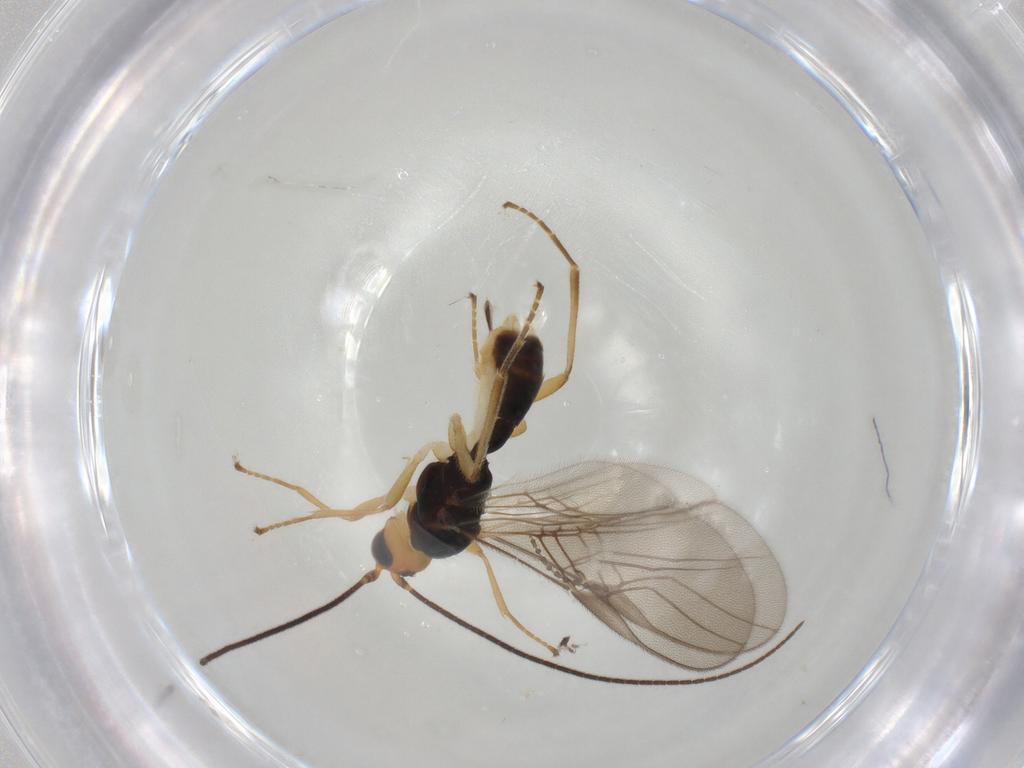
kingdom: Animalia
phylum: Arthropoda
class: Insecta
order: Hymenoptera
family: Braconidae
